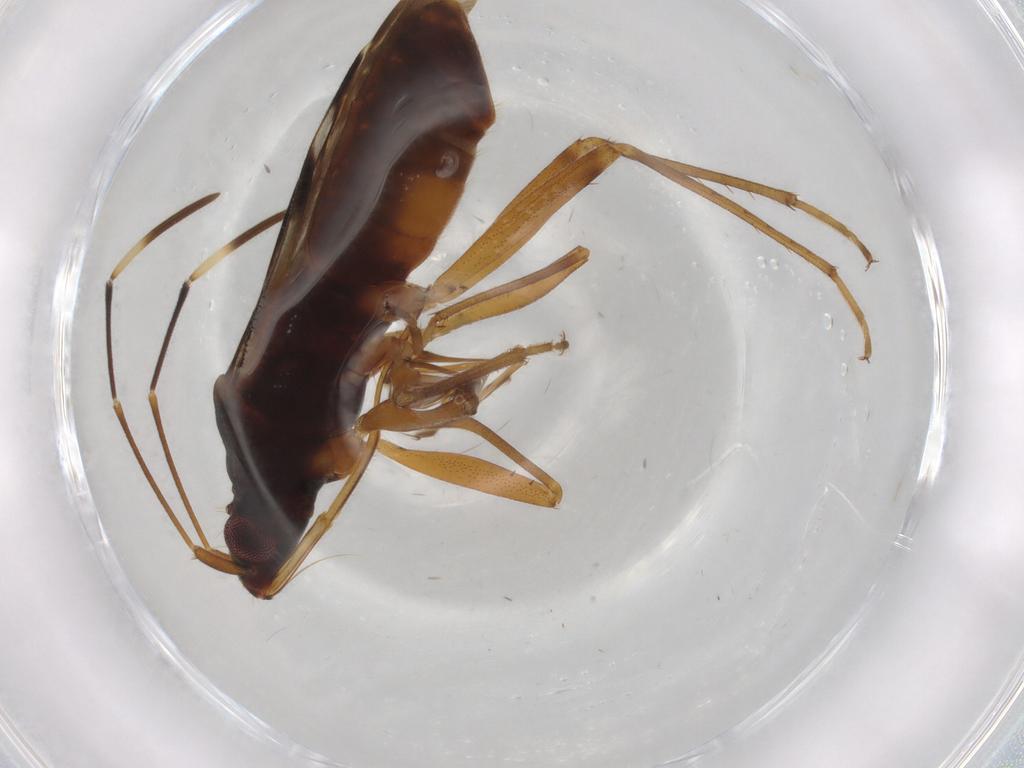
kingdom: Animalia
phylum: Arthropoda
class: Insecta
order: Hemiptera
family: Rhyparochromidae
